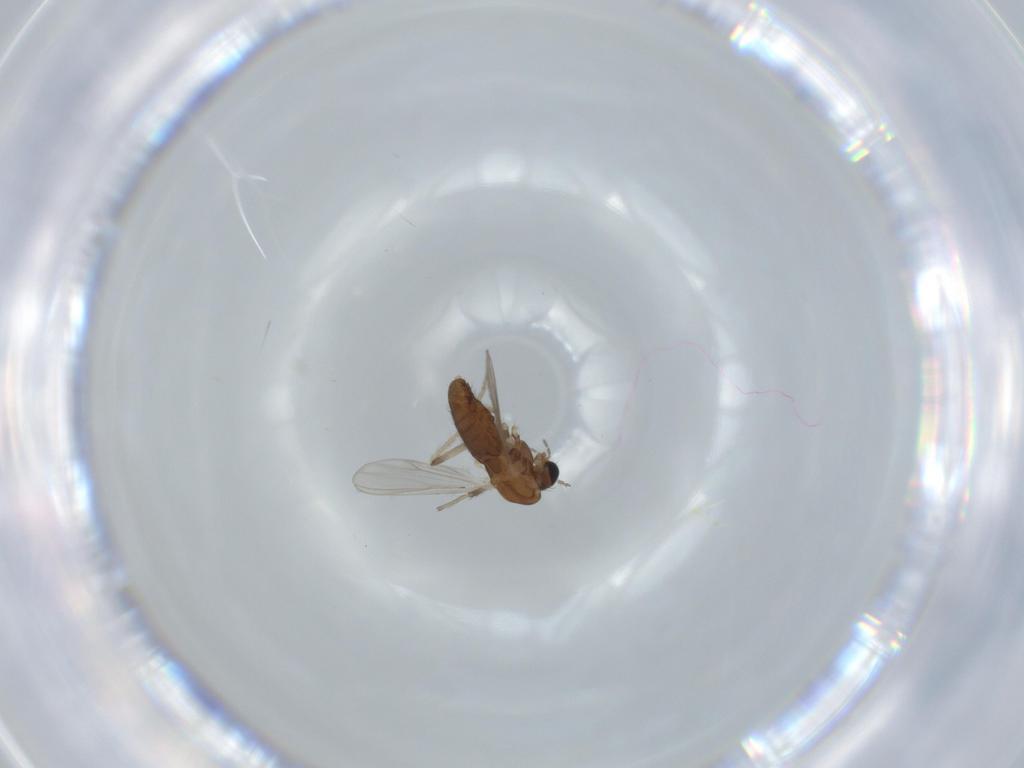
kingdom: Animalia
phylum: Arthropoda
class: Insecta
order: Diptera
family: Chironomidae
